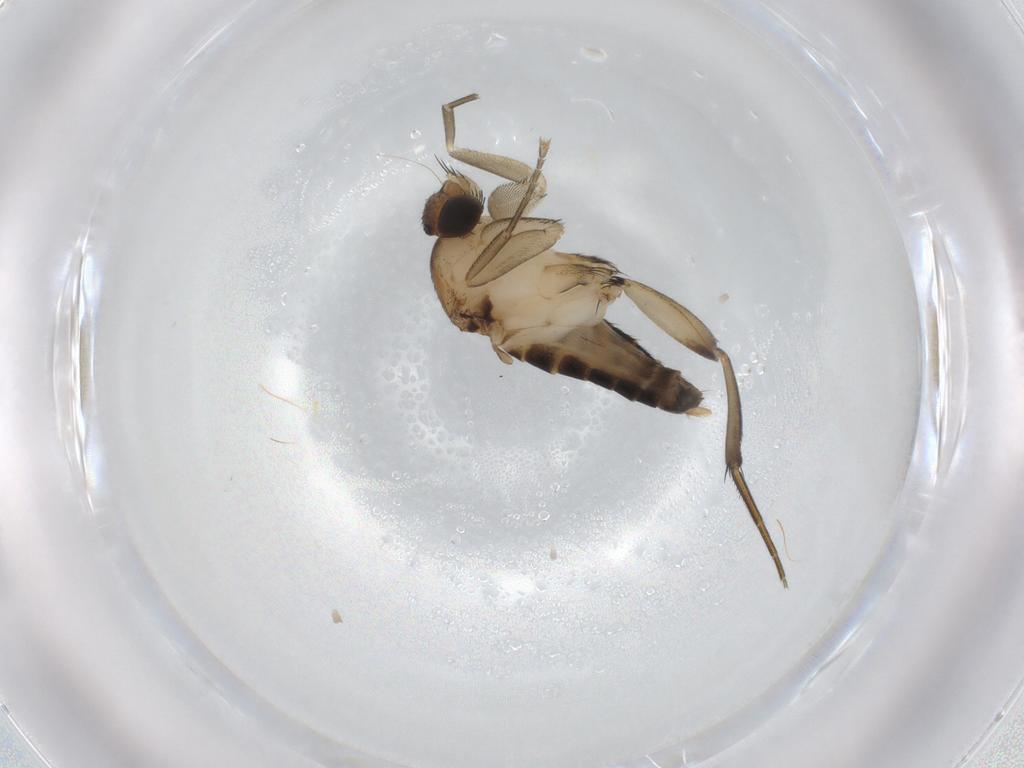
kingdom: Animalia
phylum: Arthropoda
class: Insecta
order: Diptera
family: Phoridae
